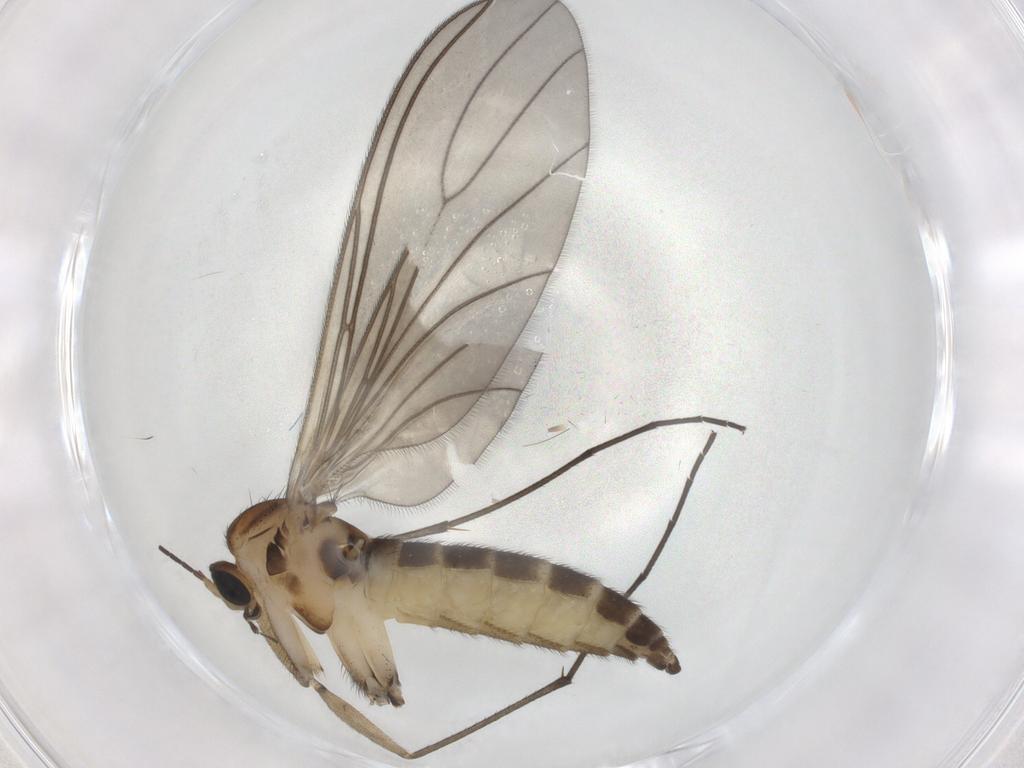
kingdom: Animalia
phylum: Arthropoda
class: Insecta
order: Diptera
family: Sciaridae
